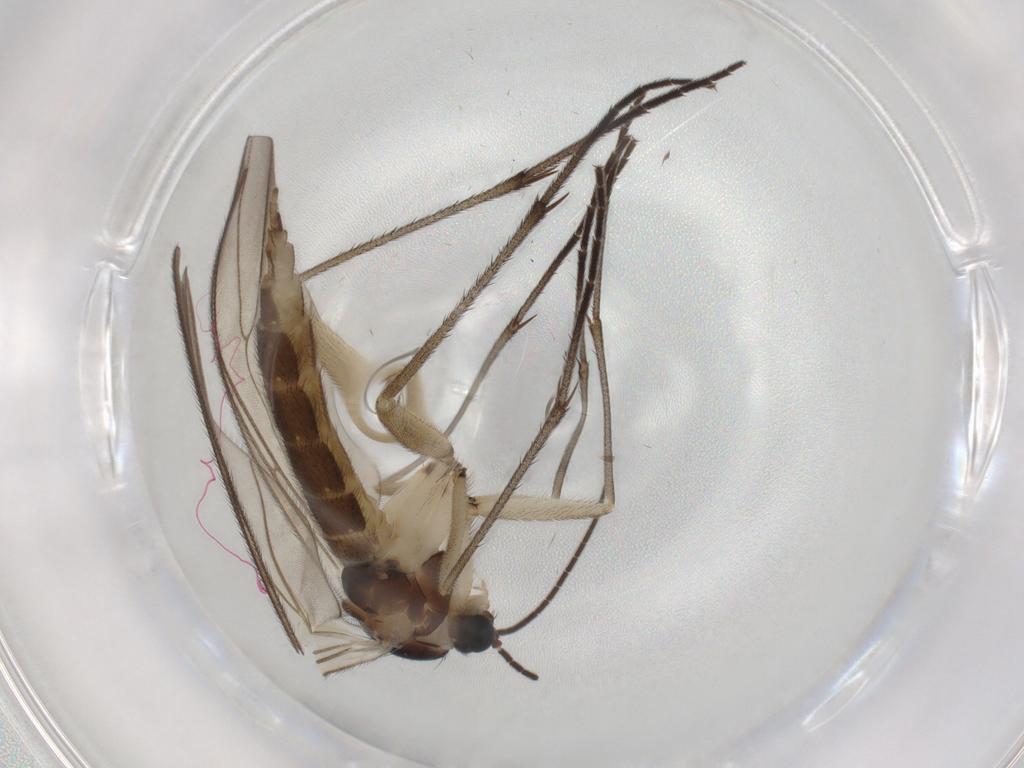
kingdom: Animalia
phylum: Arthropoda
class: Insecta
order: Diptera
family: Sciaridae
